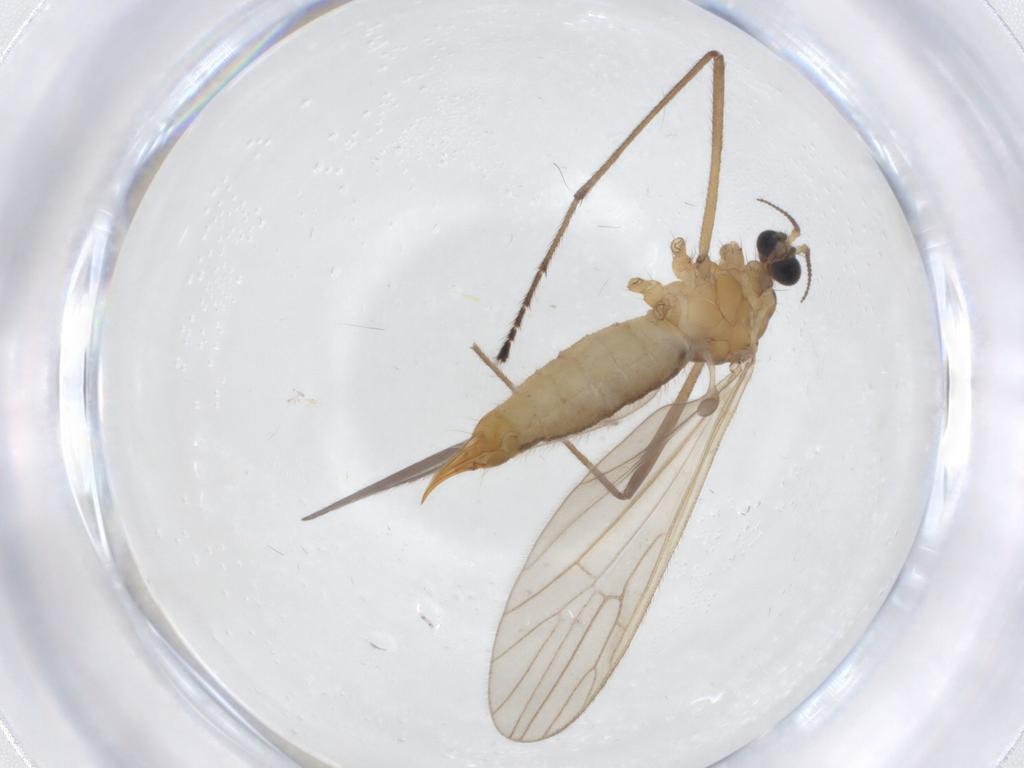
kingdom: Animalia
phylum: Arthropoda
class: Insecta
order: Diptera
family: Limoniidae
